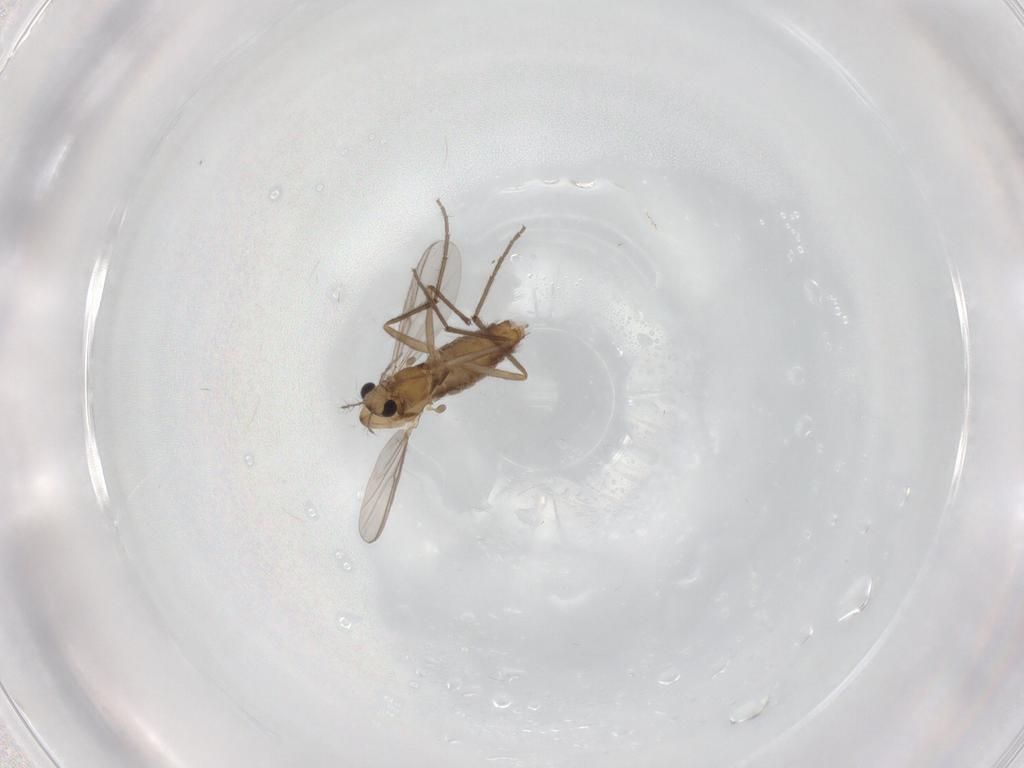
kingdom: Animalia
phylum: Arthropoda
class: Insecta
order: Diptera
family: Chironomidae
